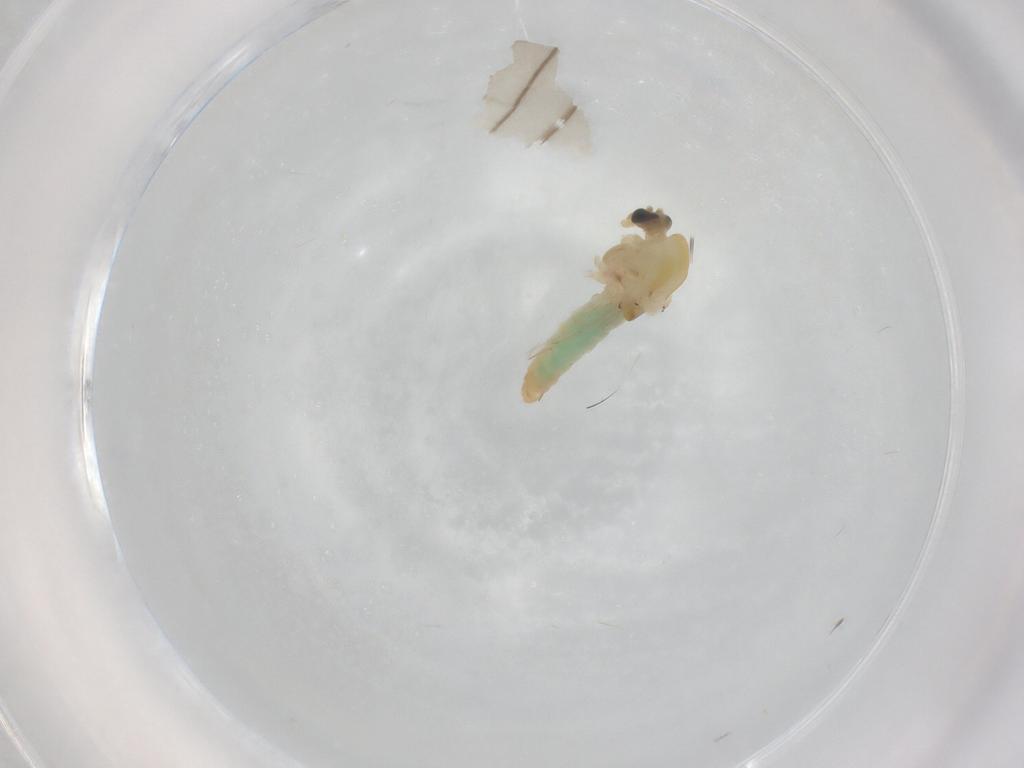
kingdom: Animalia
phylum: Arthropoda
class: Insecta
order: Diptera
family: Chironomidae
